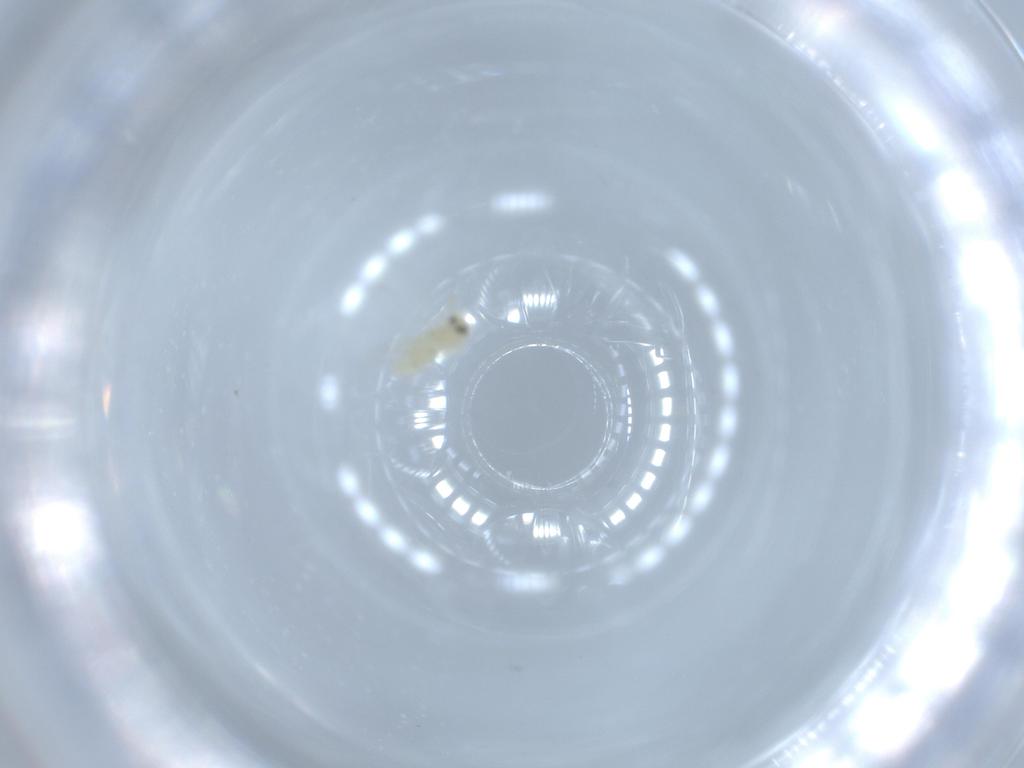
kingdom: Animalia
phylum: Arthropoda
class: Insecta
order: Coleoptera
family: Coccinellidae
